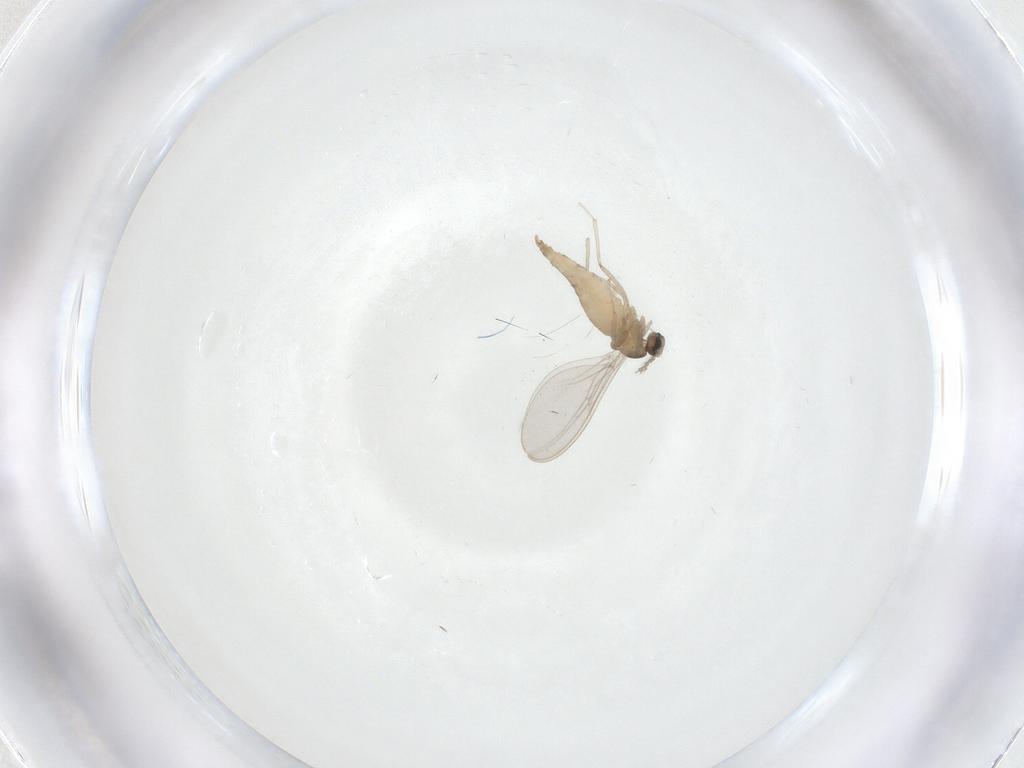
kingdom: Animalia
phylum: Arthropoda
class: Insecta
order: Diptera
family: Cecidomyiidae
